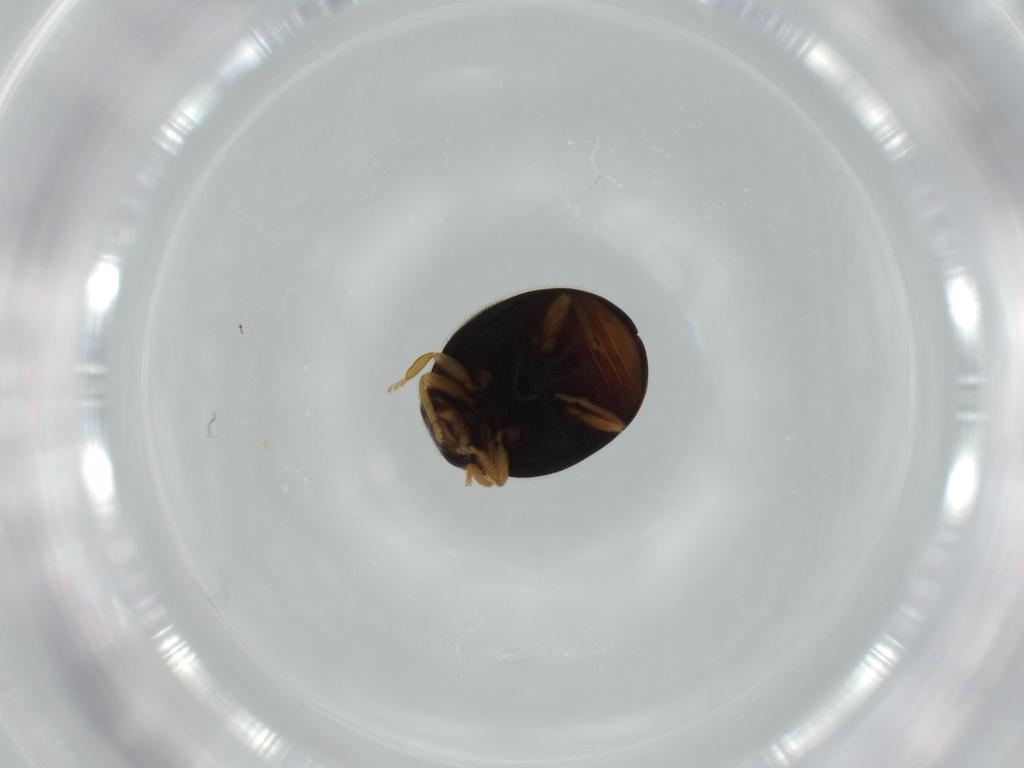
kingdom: Animalia
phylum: Arthropoda
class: Insecta
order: Coleoptera
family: Coccinellidae
